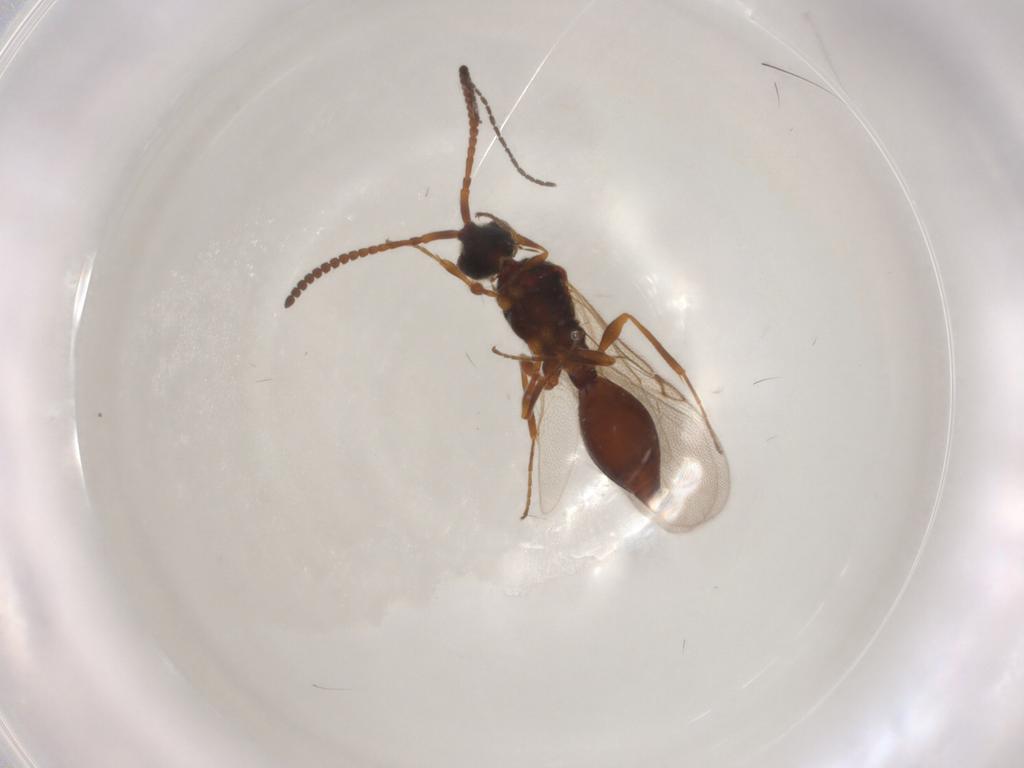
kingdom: Animalia
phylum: Arthropoda
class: Insecta
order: Hymenoptera
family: Diapriidae
